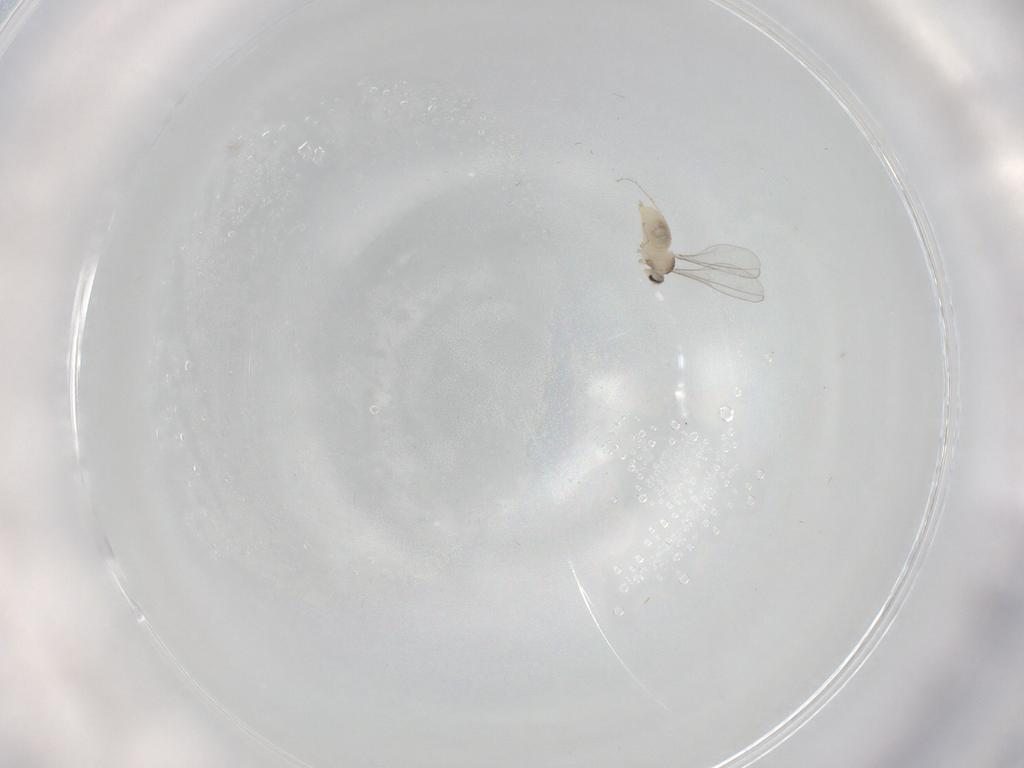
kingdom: Animalia
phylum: Arthropoda
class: Insecta
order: Diptera
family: Cecidomyiidae
